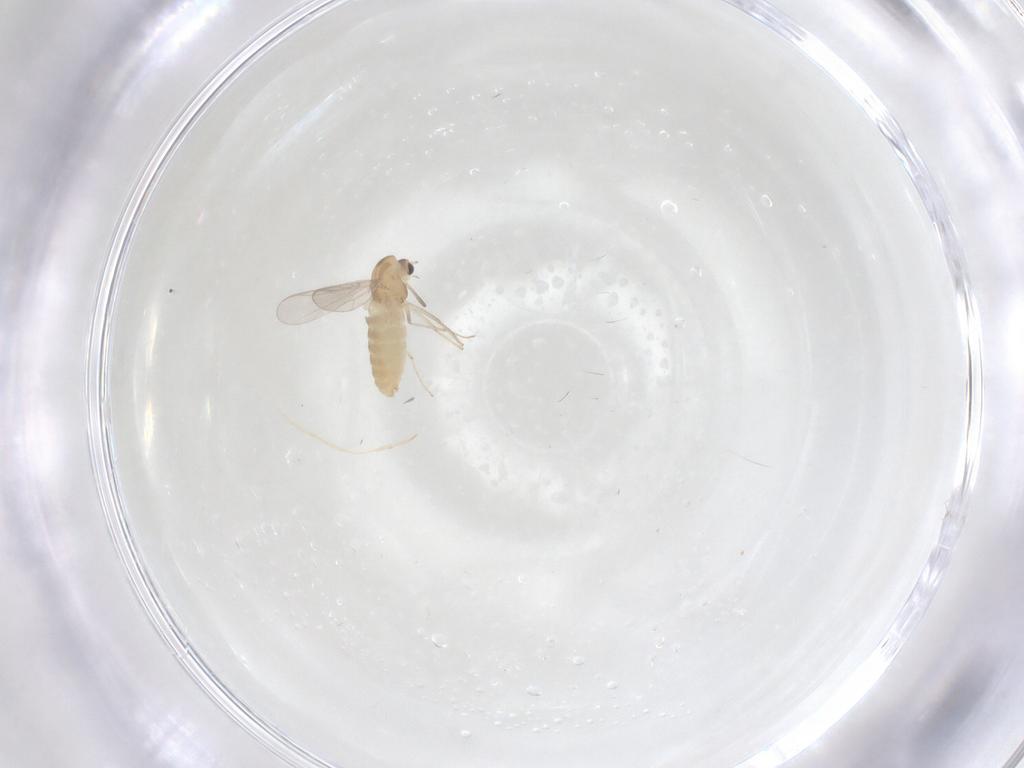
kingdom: Animalia
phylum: Arthropoda
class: Insecta
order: Diptera
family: Chironomidae
